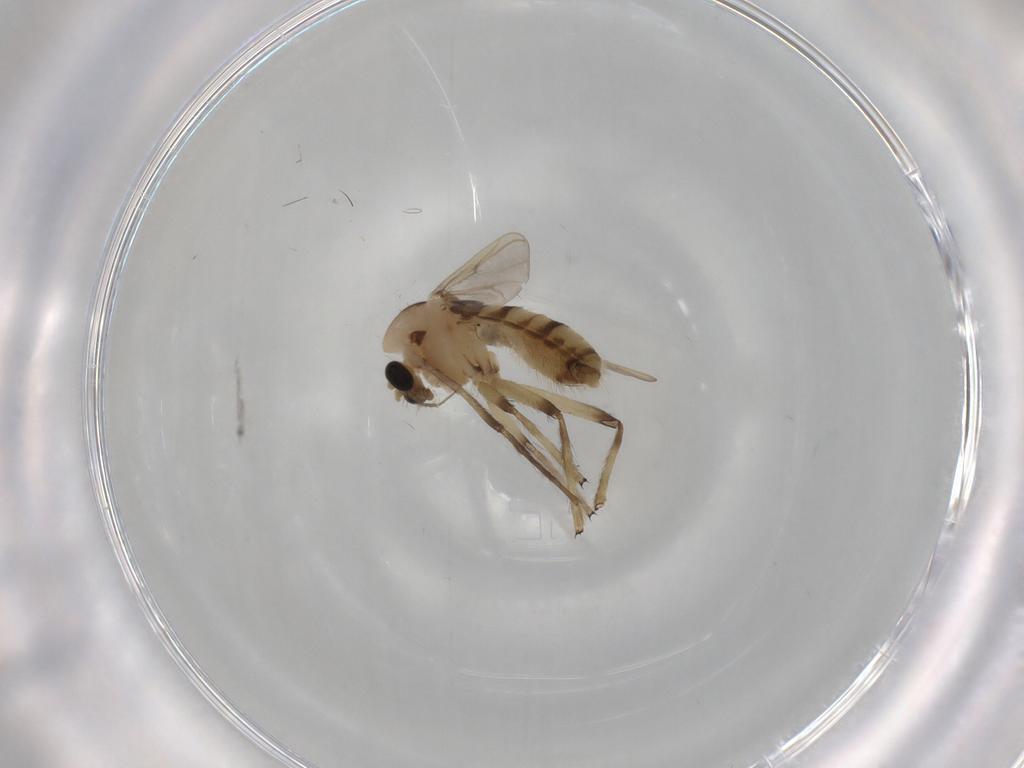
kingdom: Animalia
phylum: Arthropoda
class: Insecta
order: Diptera
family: Chironomidae
